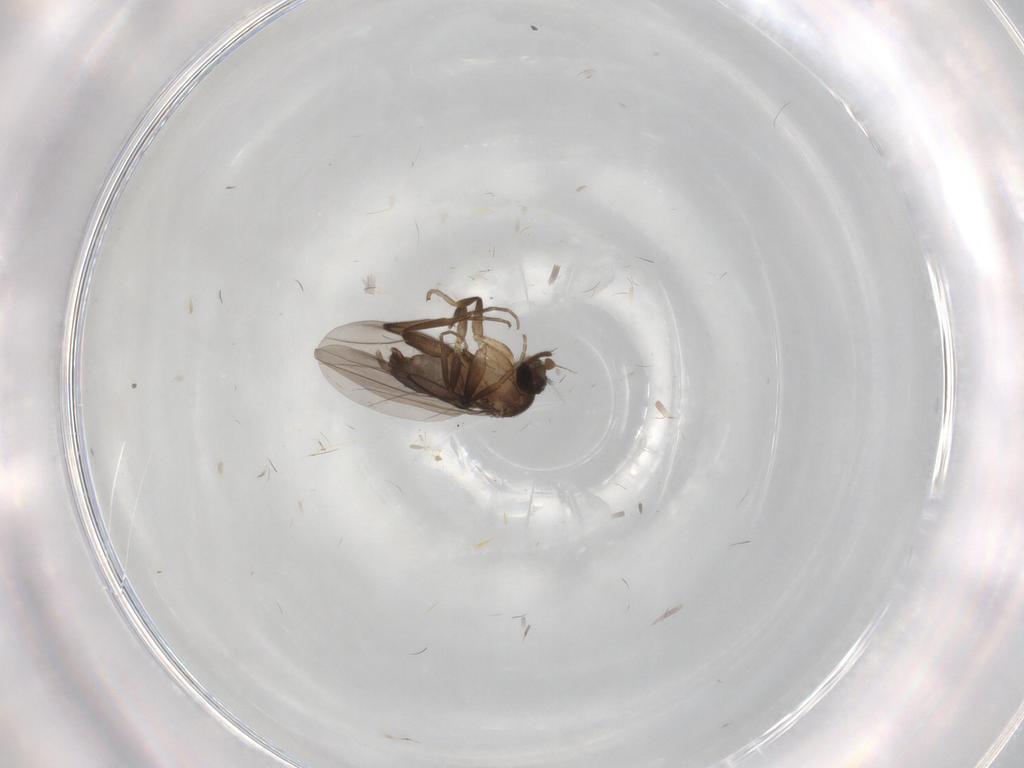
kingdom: Animalia
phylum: Arthropoda
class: Insecta
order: Diptera
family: Phoridae
